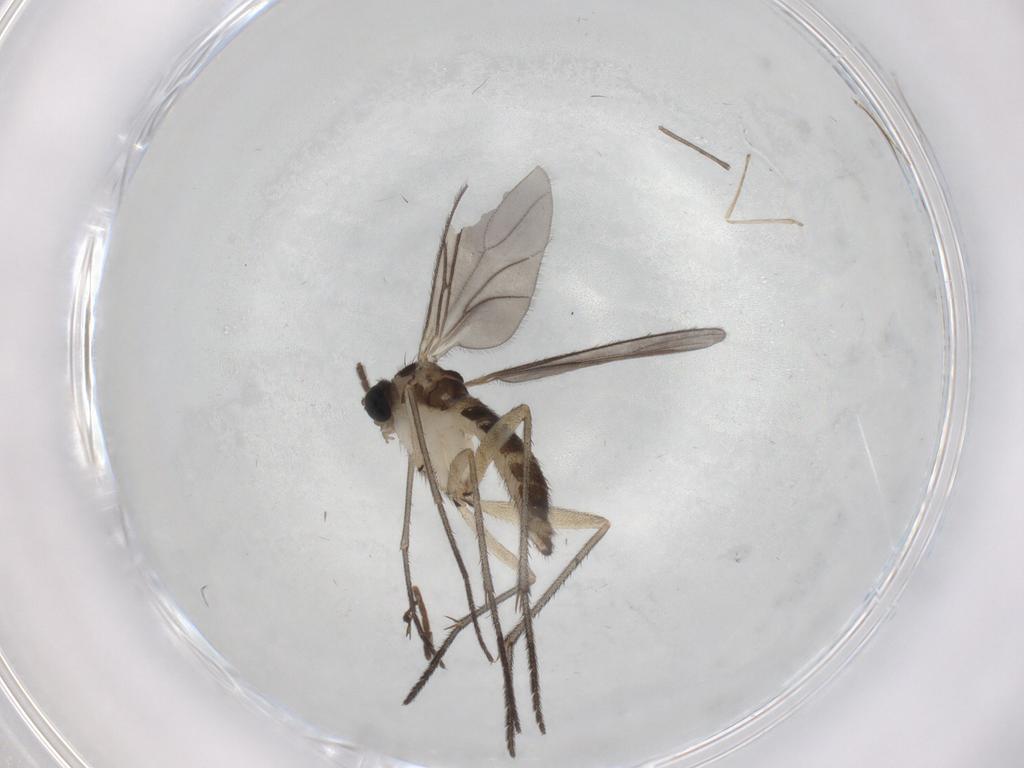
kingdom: Animalia
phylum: Arthropoda
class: Insecta
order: Diptera
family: Sciaridae
